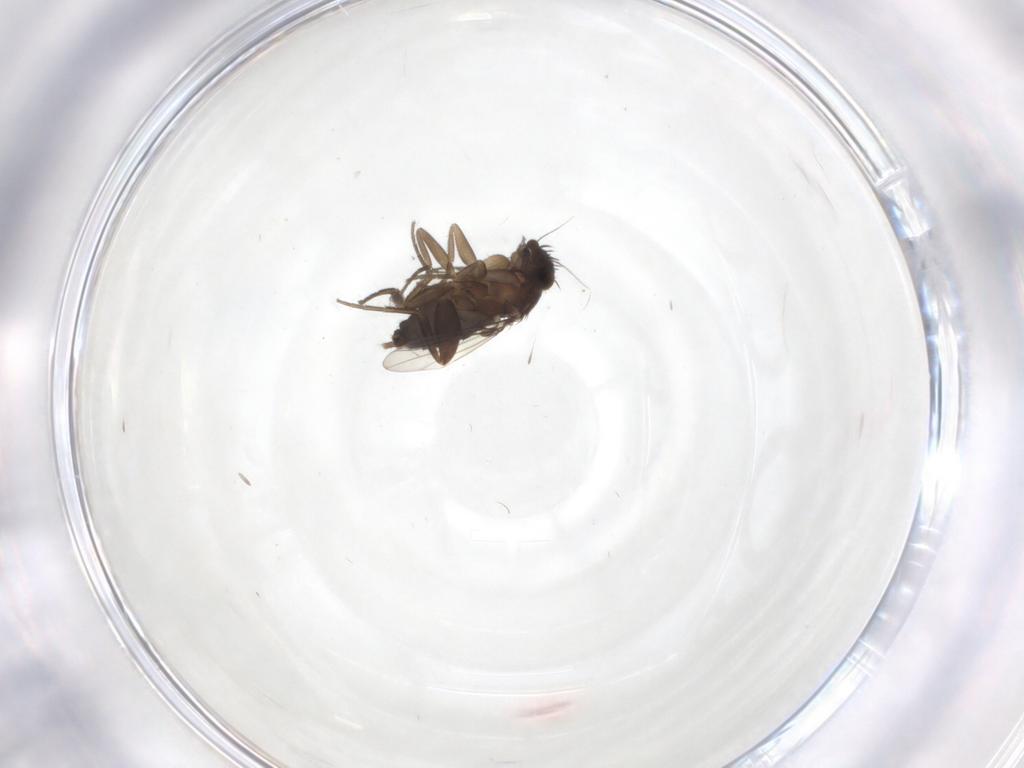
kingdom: Animalia
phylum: Arthropoda
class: Insecta
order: Diptera
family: Phoridae
